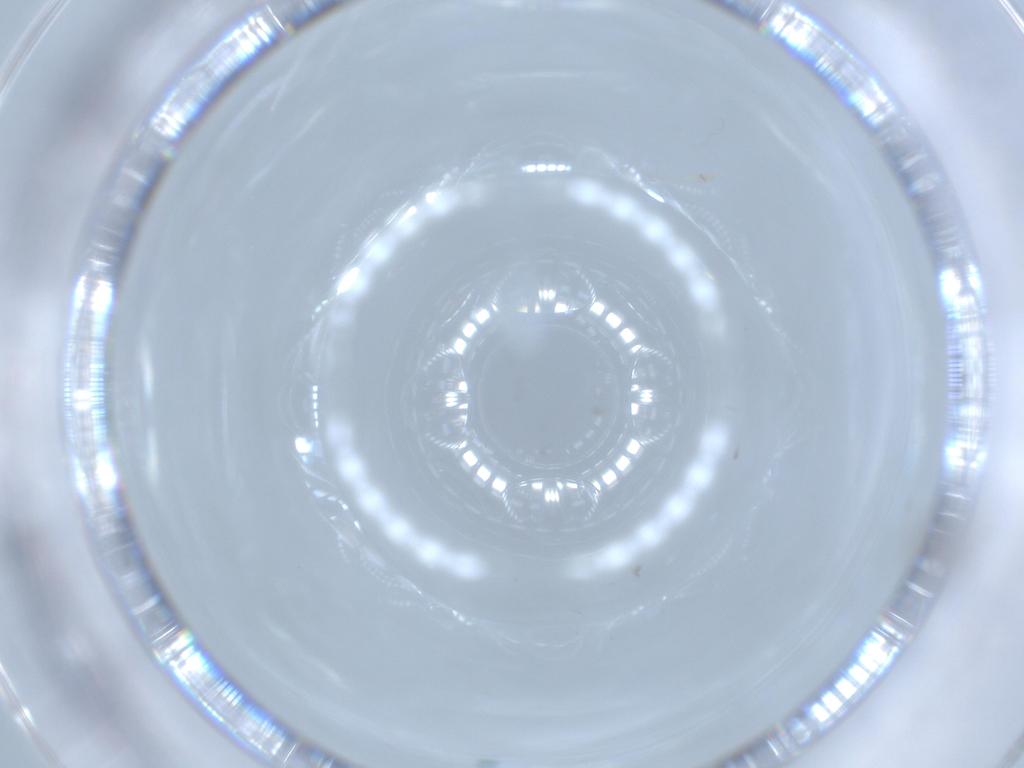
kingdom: Animalia
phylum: Arthropoda
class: Insecta
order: Diptera
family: Cecidomyiidae
